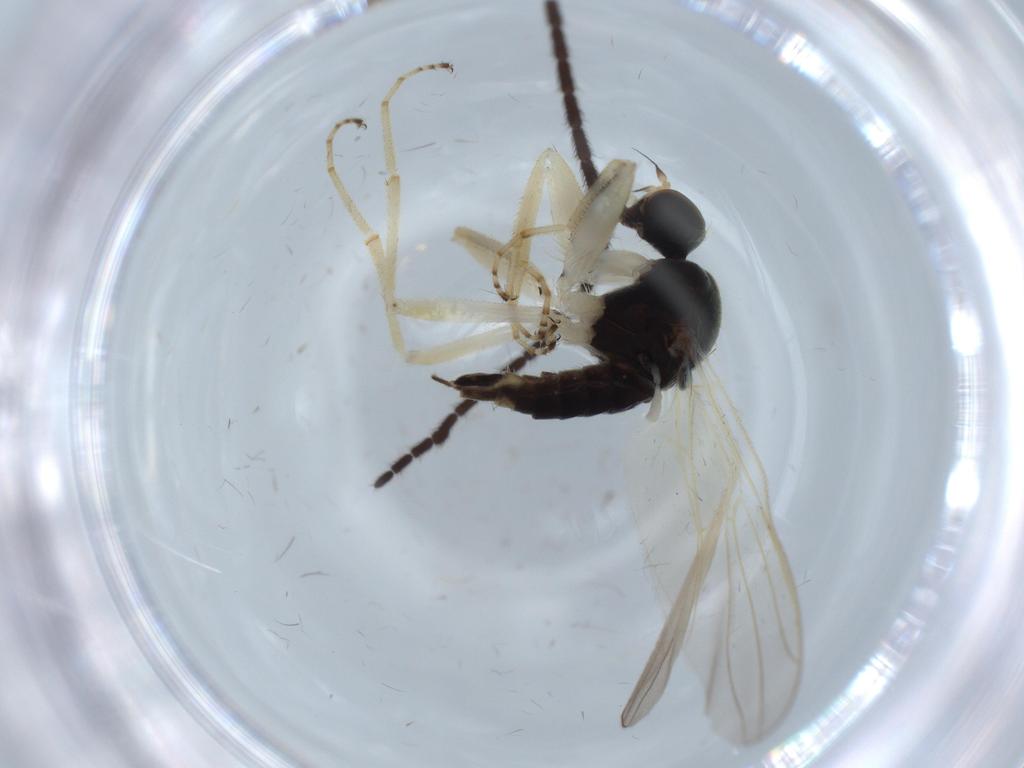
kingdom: Animalia
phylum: Arthropoda
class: Insecta
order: Diptera
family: Hybotidae
